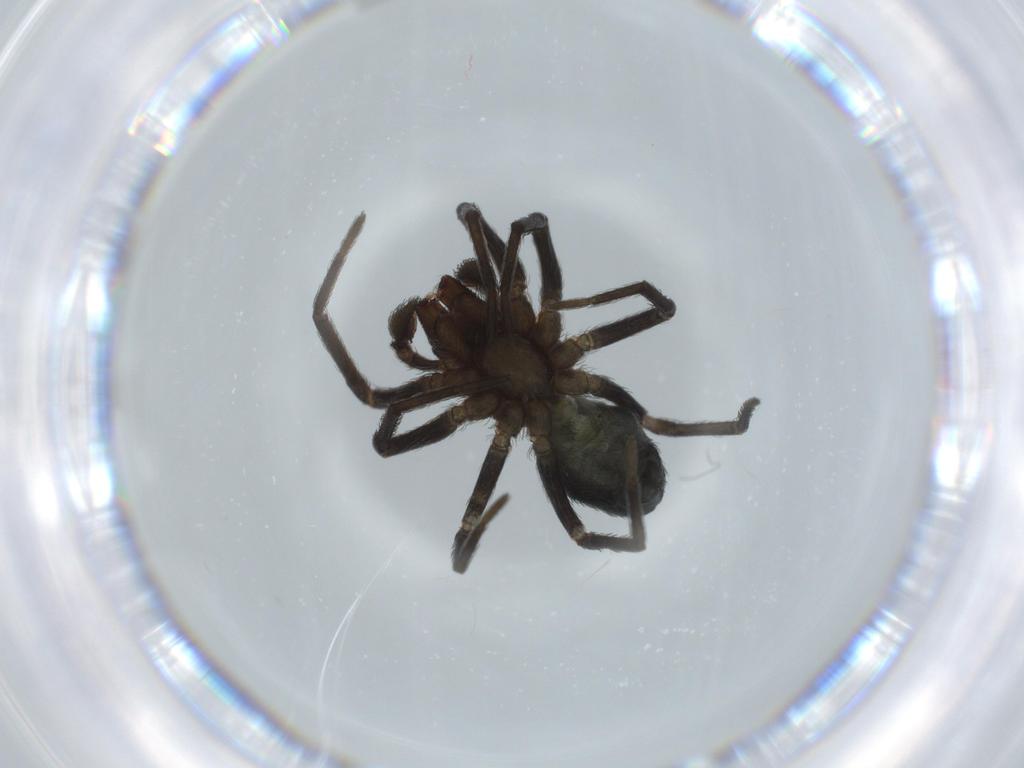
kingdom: Animalia
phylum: Arthropoda
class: Arachnida
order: Araneae
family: Dictynidae
